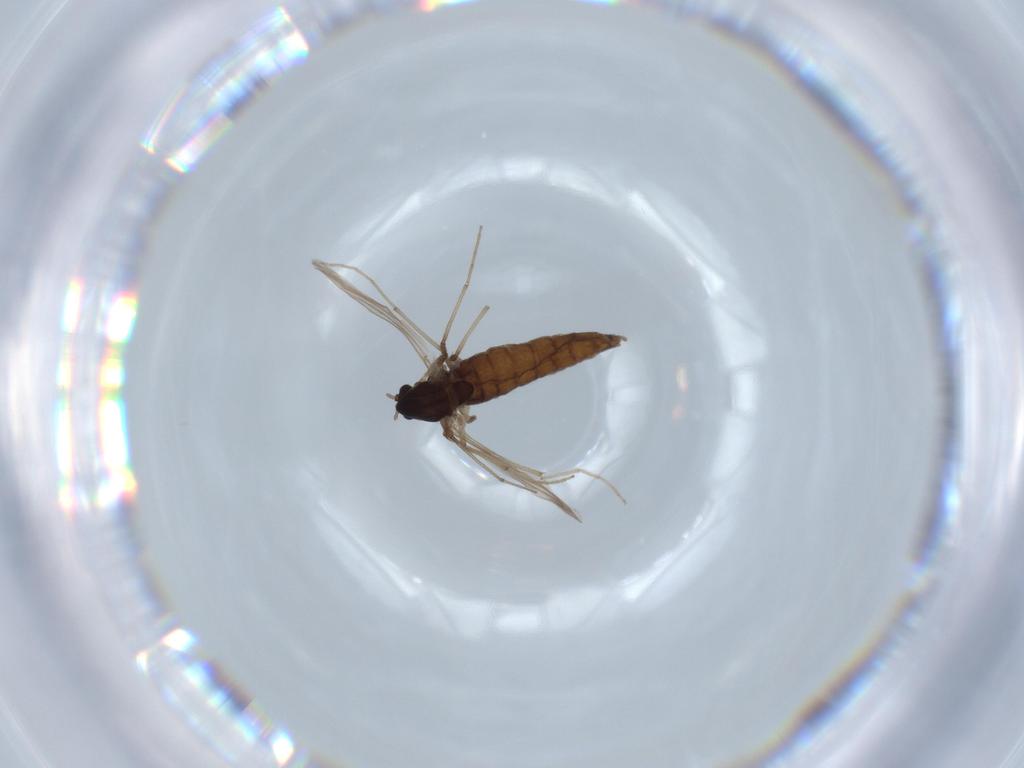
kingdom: Animalia
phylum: Arthropoda
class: Insecta
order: Diptera
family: Chironomidae
